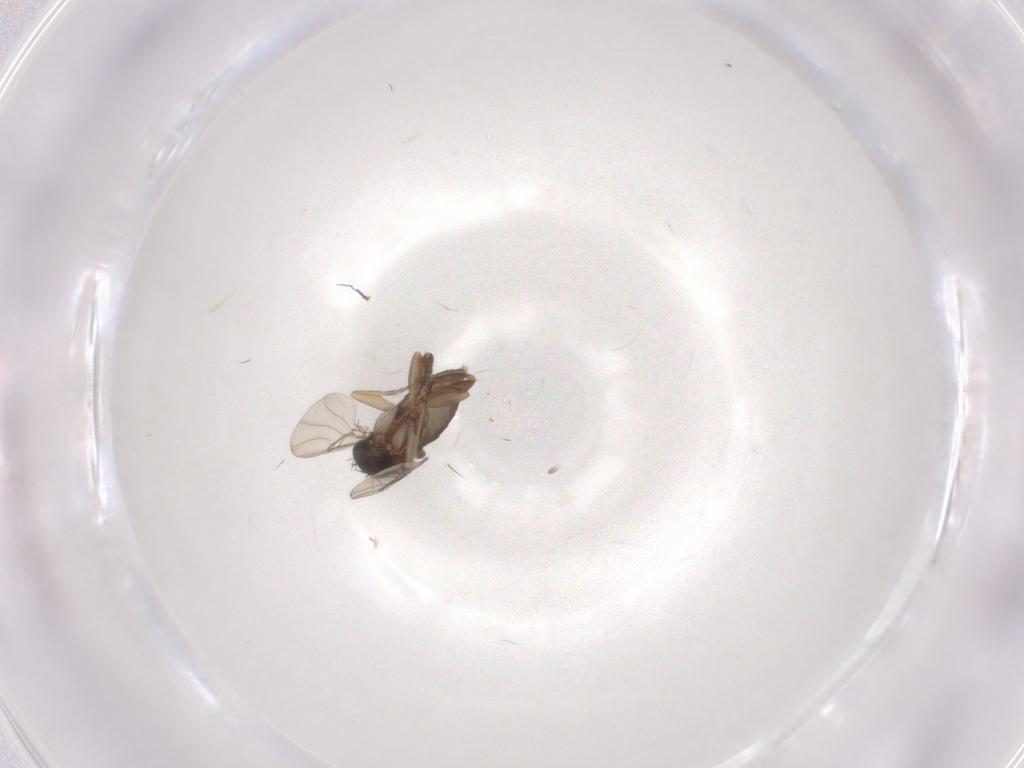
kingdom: Animalia
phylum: Arthropoda
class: Insecta
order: Diptera
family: Phoridae
